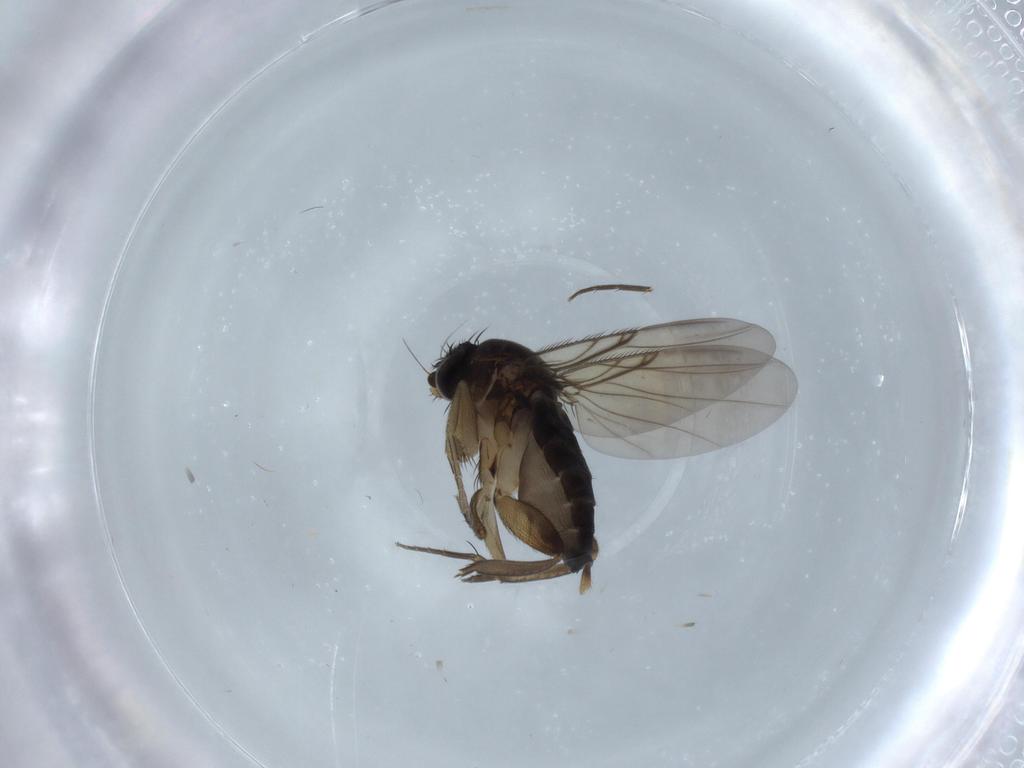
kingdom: Animalia
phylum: Arthropoda
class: Insecta
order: Diptera
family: Phoridae
